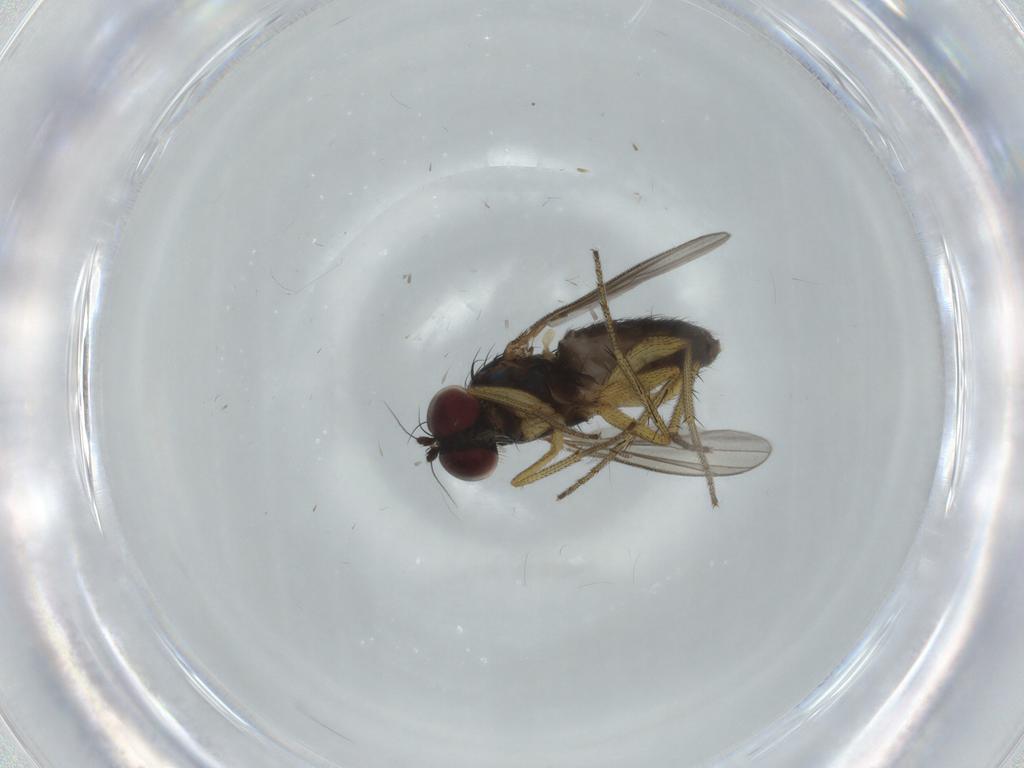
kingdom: Animalia
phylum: Arthropoda
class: Insecta
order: Diptera
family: Dolichopodidae
